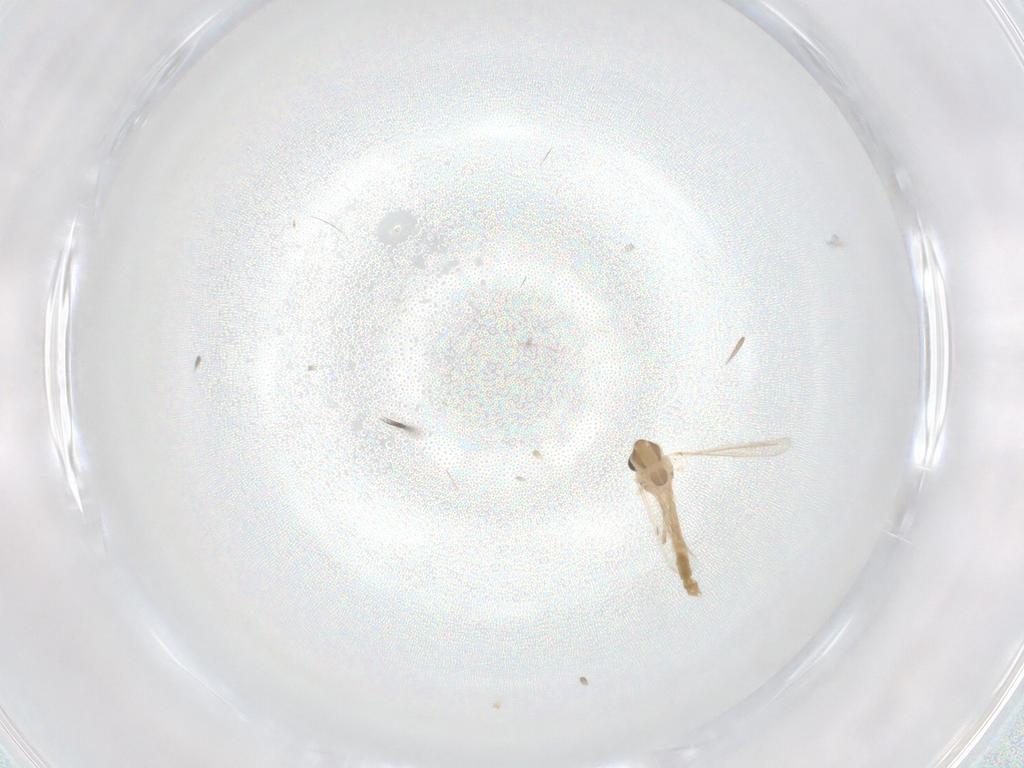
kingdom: Animalia
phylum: Arthropoda
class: Insecta
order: Diptera
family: Chironomidae
